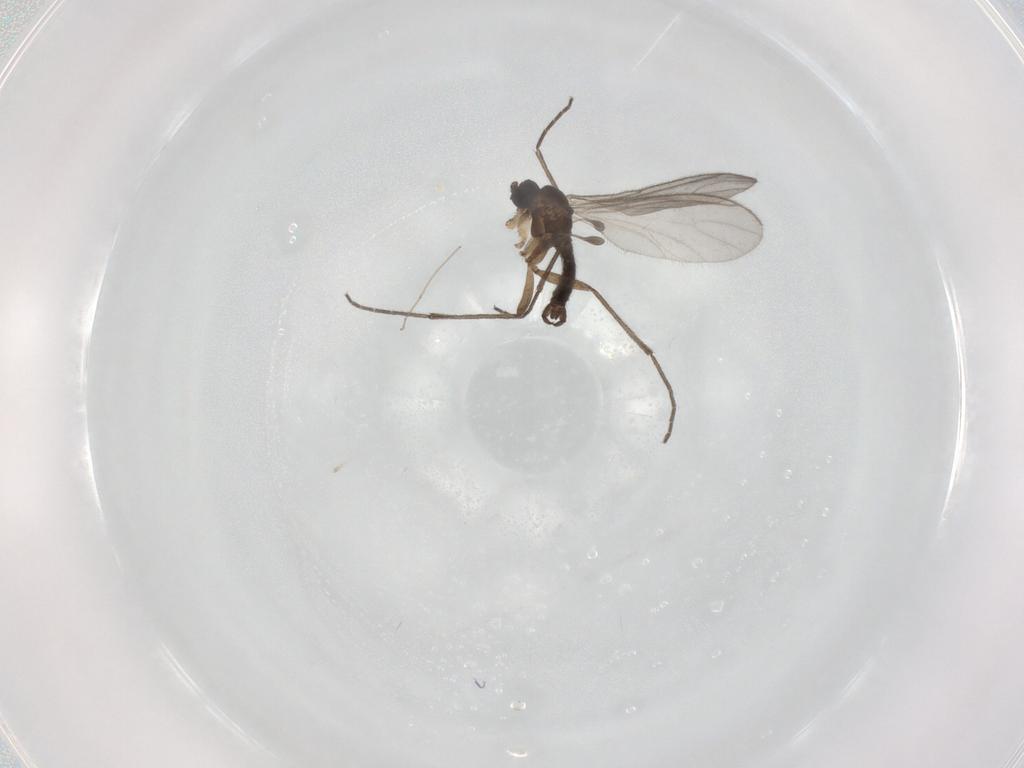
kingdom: Animalia
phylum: Arthropoda
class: Insecta
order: Diptera
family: Sciaridae
